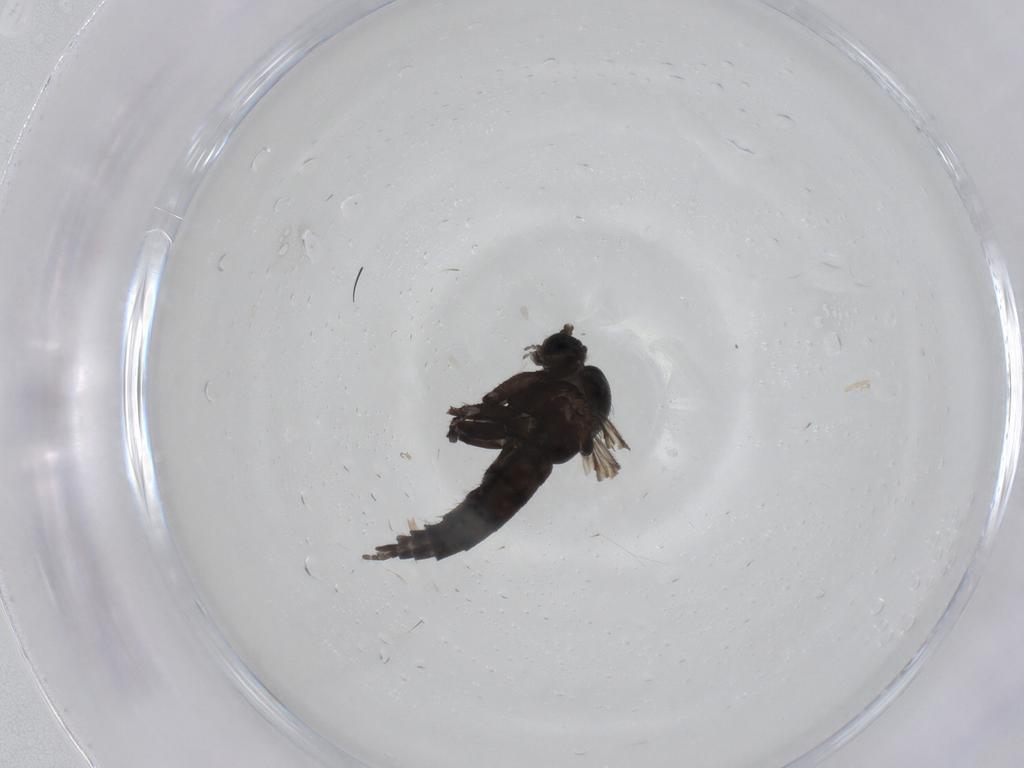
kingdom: Animalia
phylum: Arthropoda
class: Insecta
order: Diptera
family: Sciaridae
